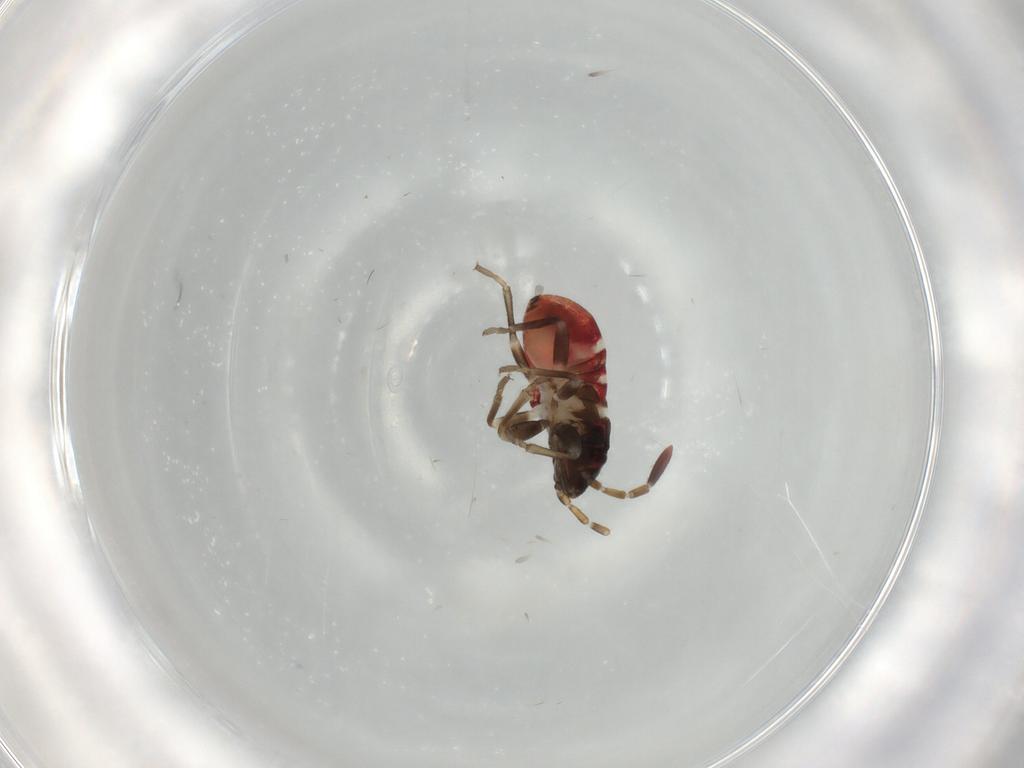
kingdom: Animalia
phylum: Arthropoda
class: Insecta
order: Hemiptera
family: Rhyparochromidae
